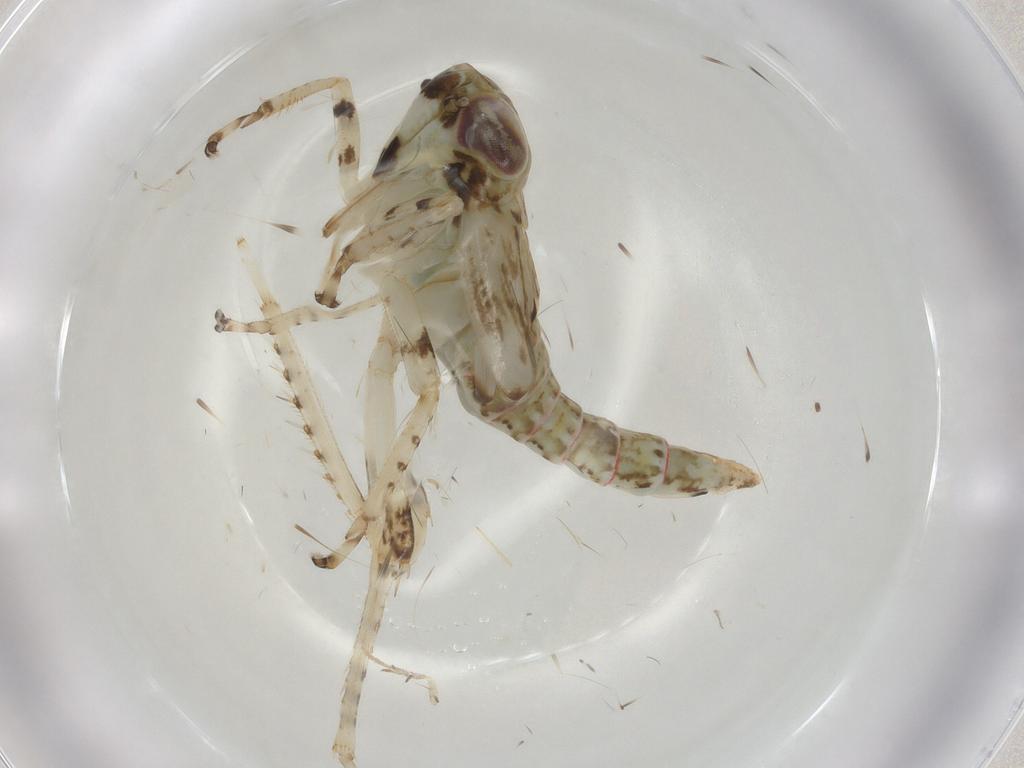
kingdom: Animalia
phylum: Arthropoda
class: Insecta
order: Hemiptera
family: Cicadellidae
